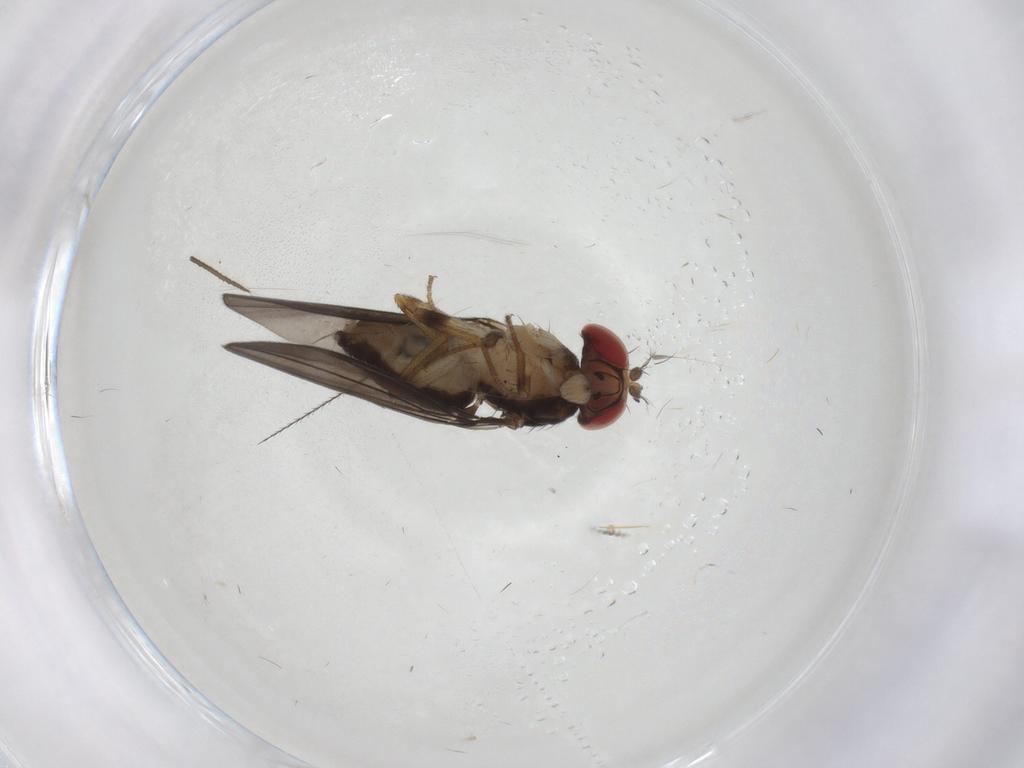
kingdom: Animalia
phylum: Arthropoda
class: Insecta
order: Diptera
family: Drosophilidae
